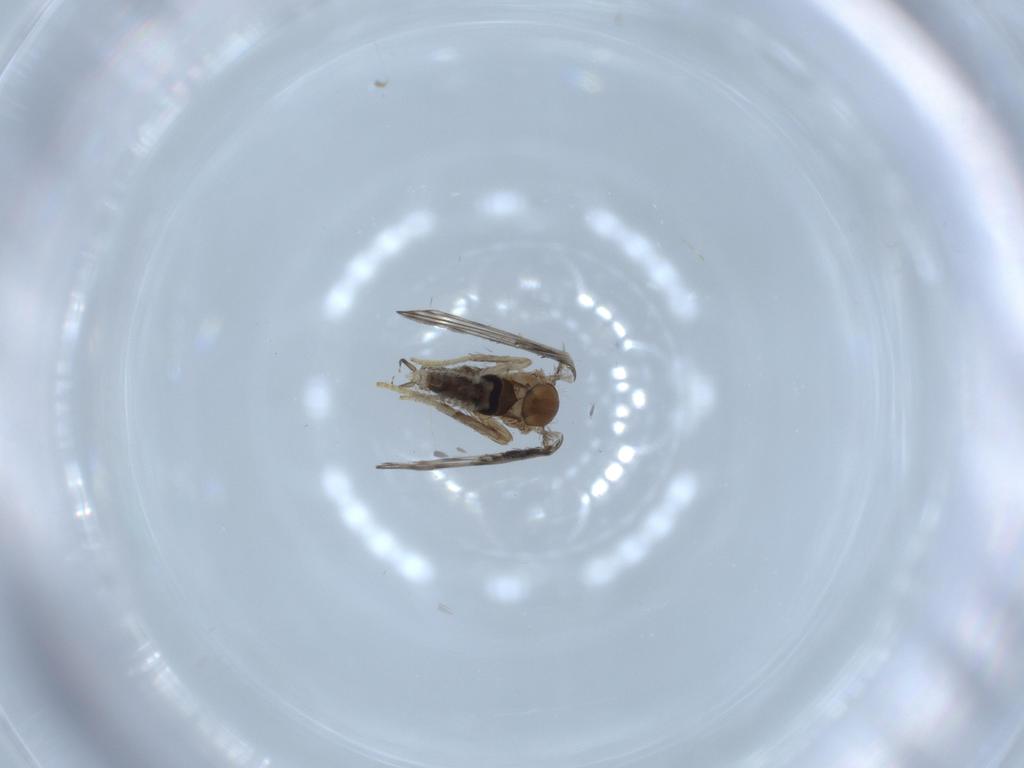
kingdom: Animalia
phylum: Arthropoda
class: Insecta
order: Diptera
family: Psychodidae
